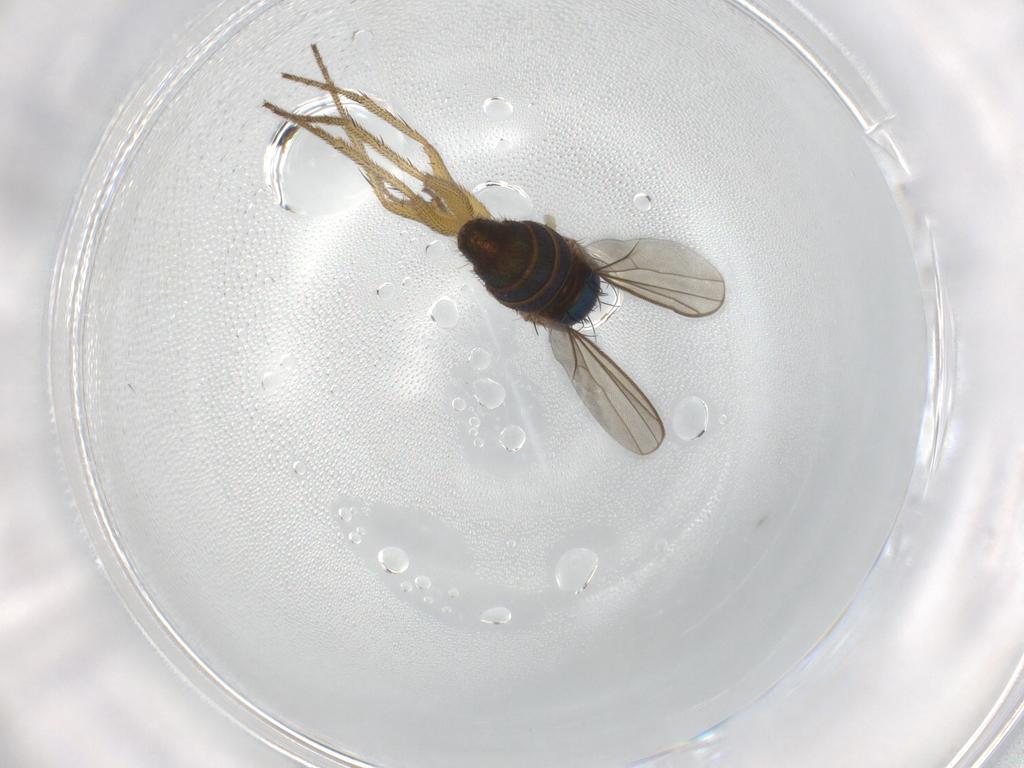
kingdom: Animalia
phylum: Arthropoda
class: Insecta
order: Diptera
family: Dolichopodidae
